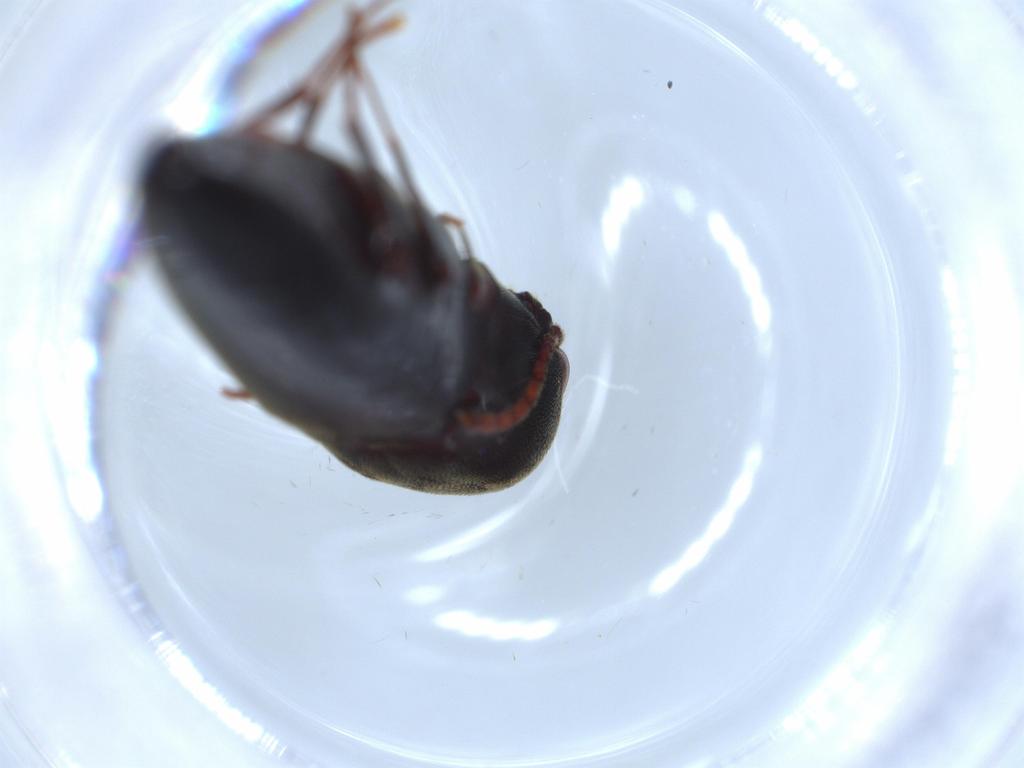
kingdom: Animalia
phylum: Arthropoda
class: Insecta
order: Coleoptera
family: Eucnemidae
